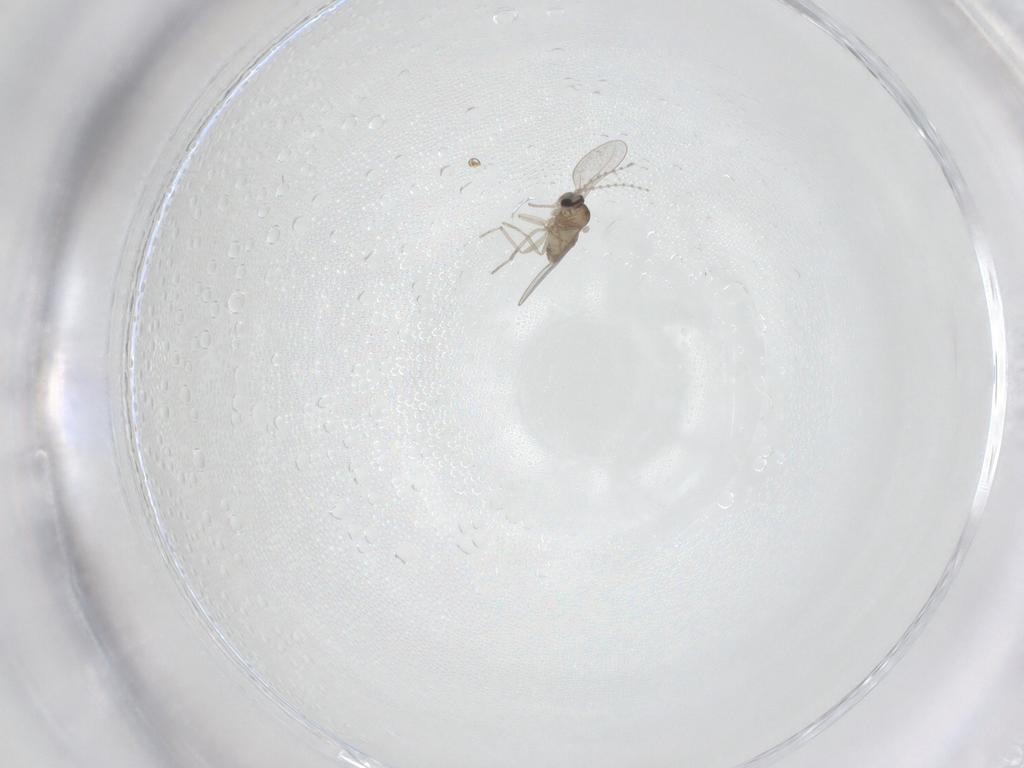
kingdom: Animalia
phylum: Arthropoda
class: Insecta
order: Diptera
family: Cecidomyiidae
